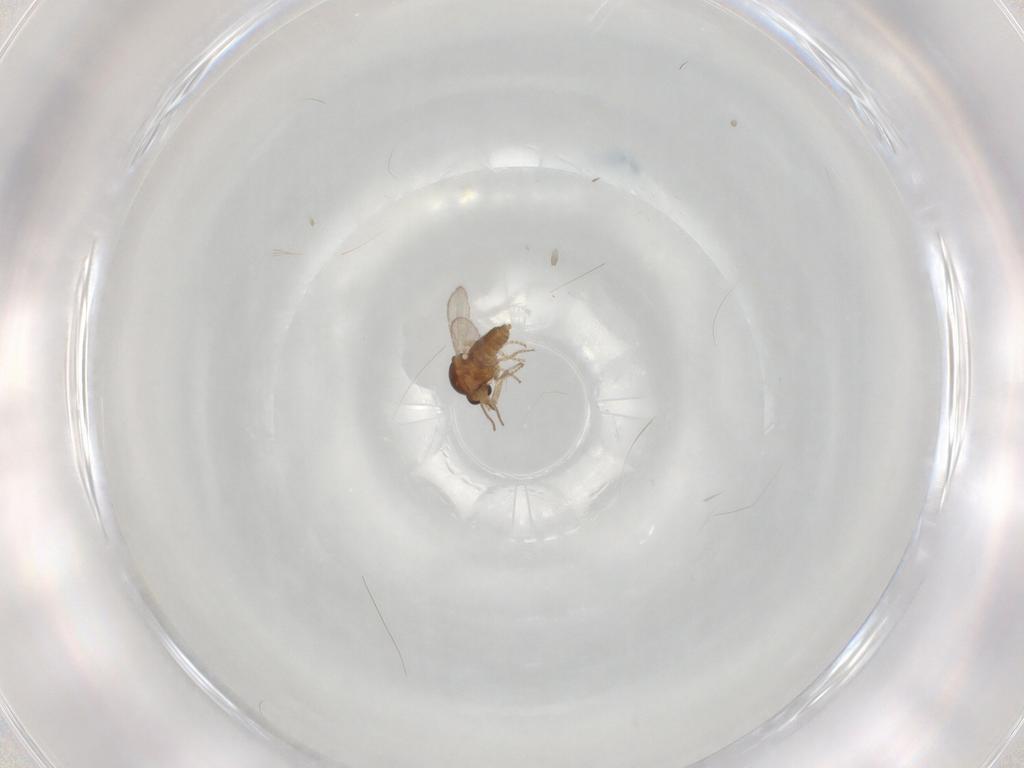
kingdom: Animalia
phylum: Arthropoda
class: Insecta
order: Diptera
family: Ceratopogonidae
